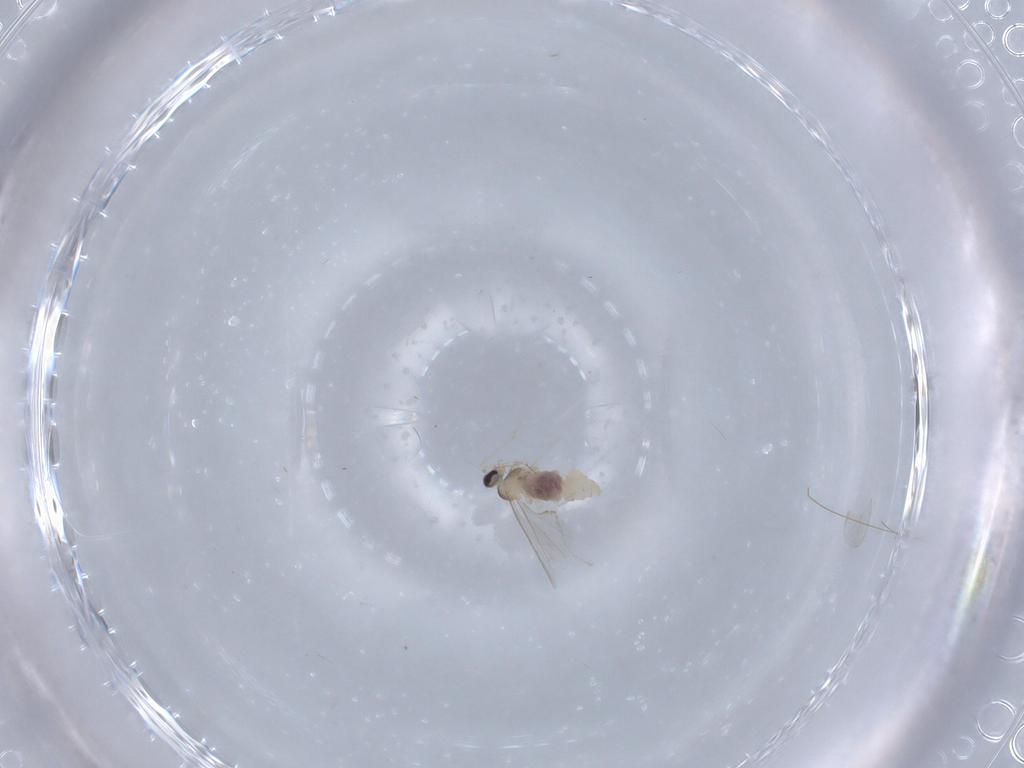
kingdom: Animalia
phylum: Arthropoda
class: Insecta
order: Diptera
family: Cecidomyiidae
